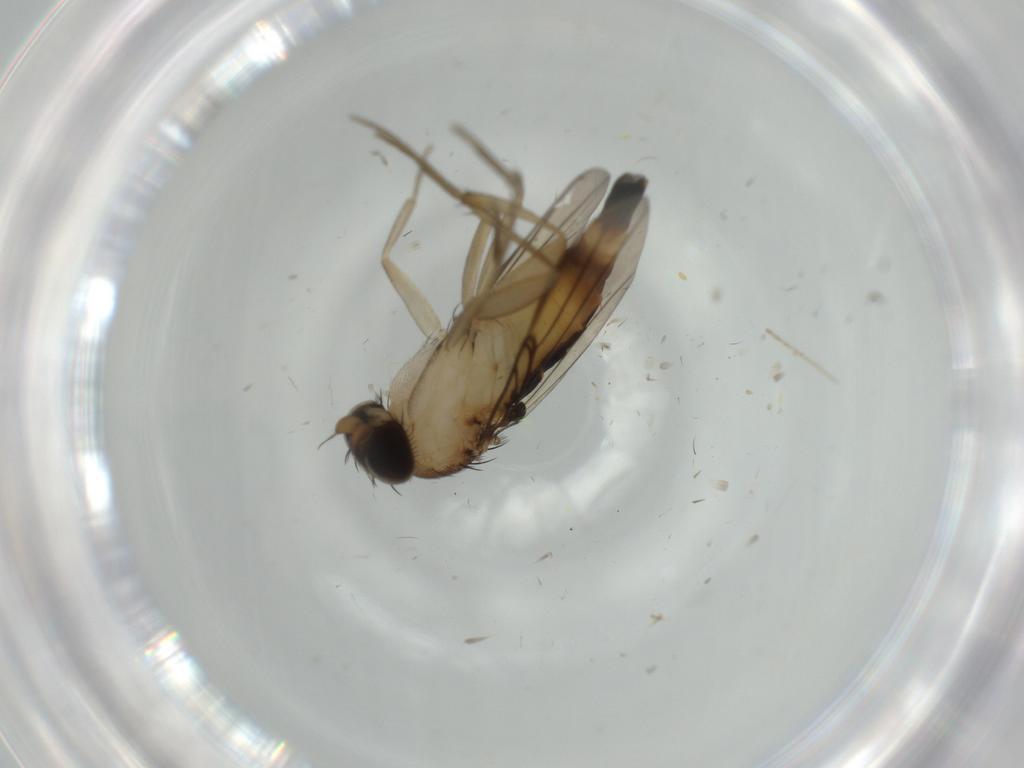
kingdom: Animalia
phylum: Arthropoda
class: Insecta
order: Diptera
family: Phoridae
